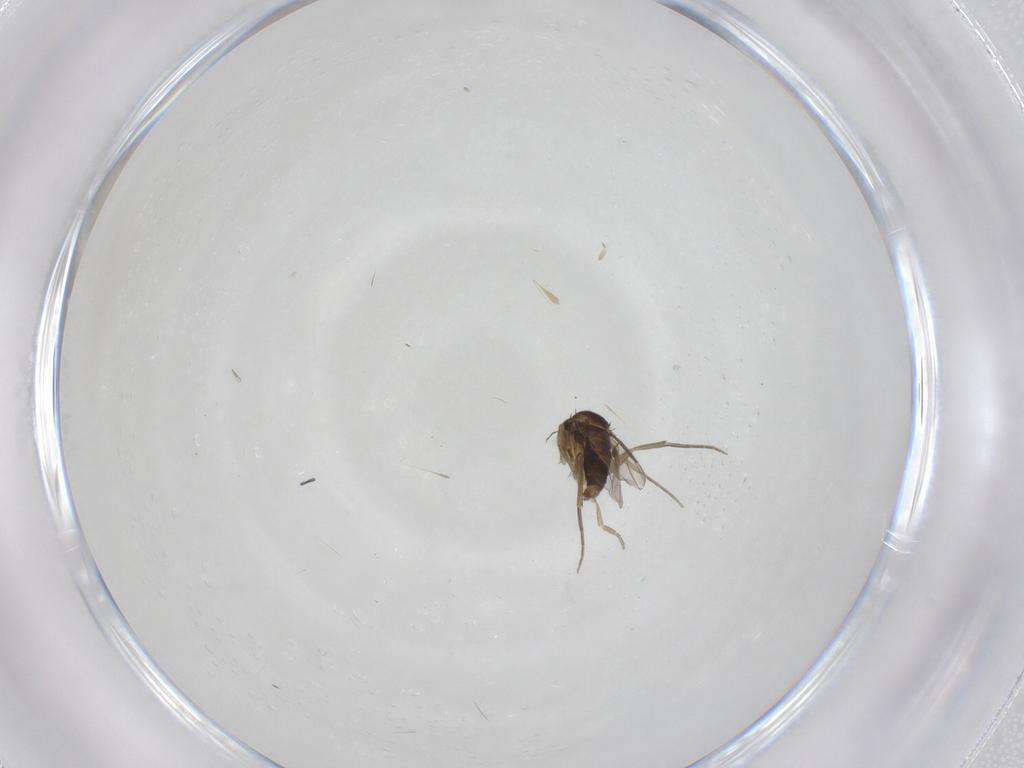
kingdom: Animalia
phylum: Arthropoda
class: Insecta
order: Diptera
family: Phoridae
